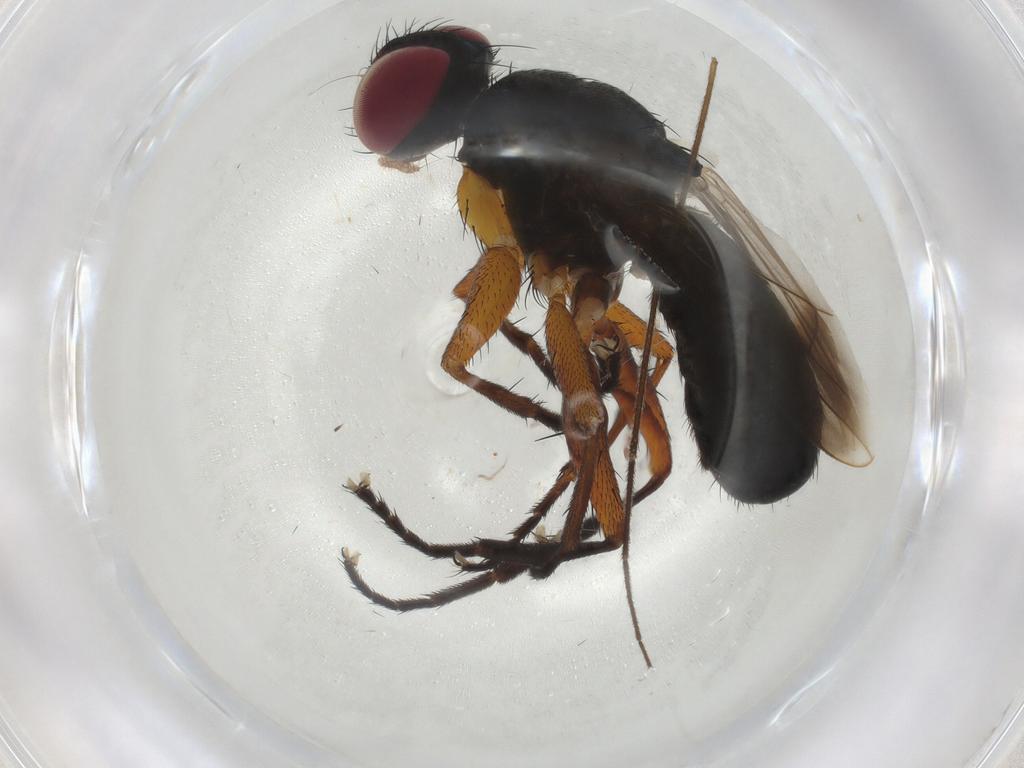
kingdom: Animalia
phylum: Arthropoda
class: Insecta
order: Diptera
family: Calliphoridae
